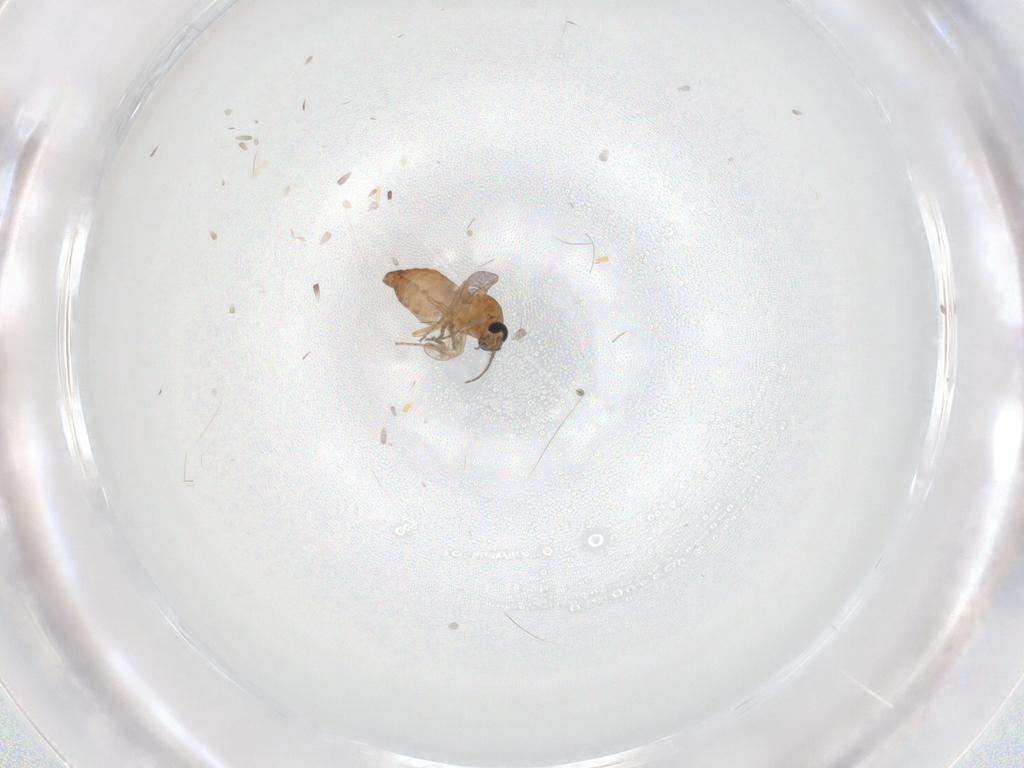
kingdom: Animalia
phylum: Arthropoda
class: Insecta
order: Diptera
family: Ceratopogonidae
